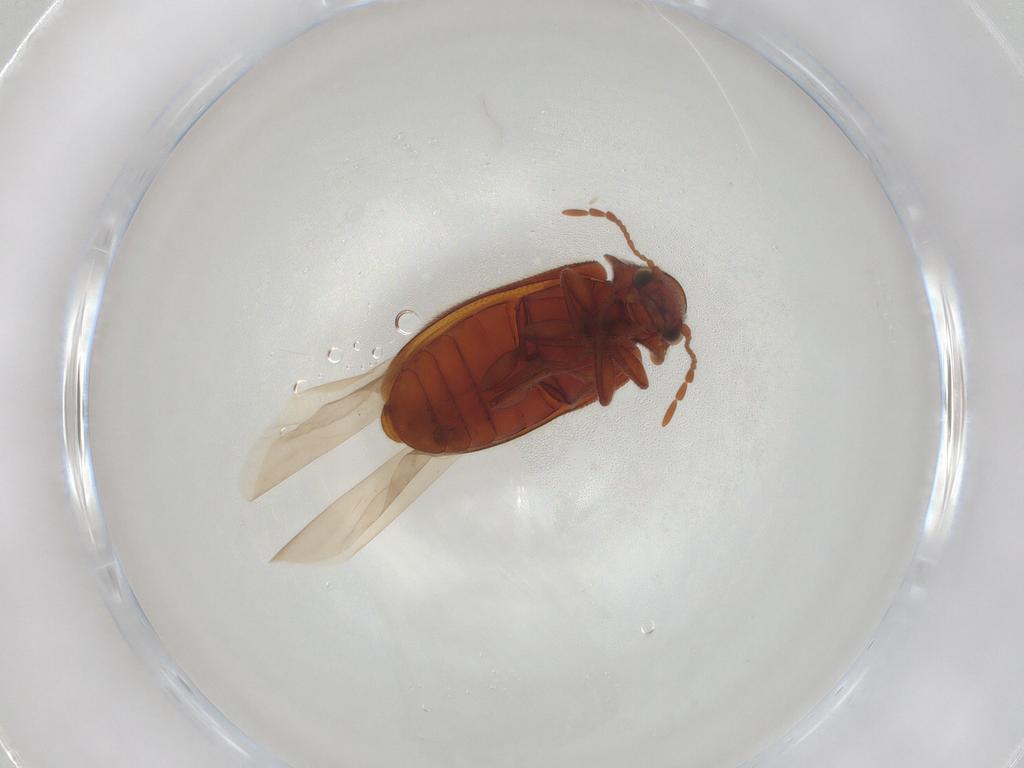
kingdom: Animalia
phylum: Arthropoda
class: Insecta
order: Coleoptera
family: Ptinidae
